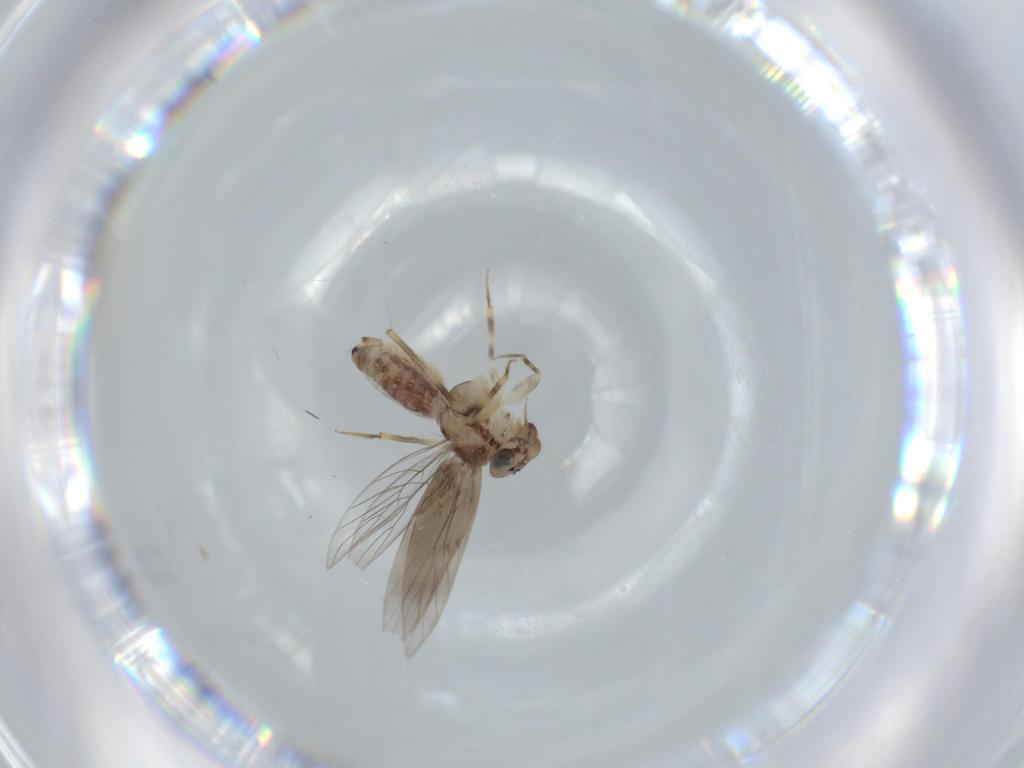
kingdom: Animalia
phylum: Arthropoda
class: Insecta
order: Psocodea
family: Lepidopsocidae
